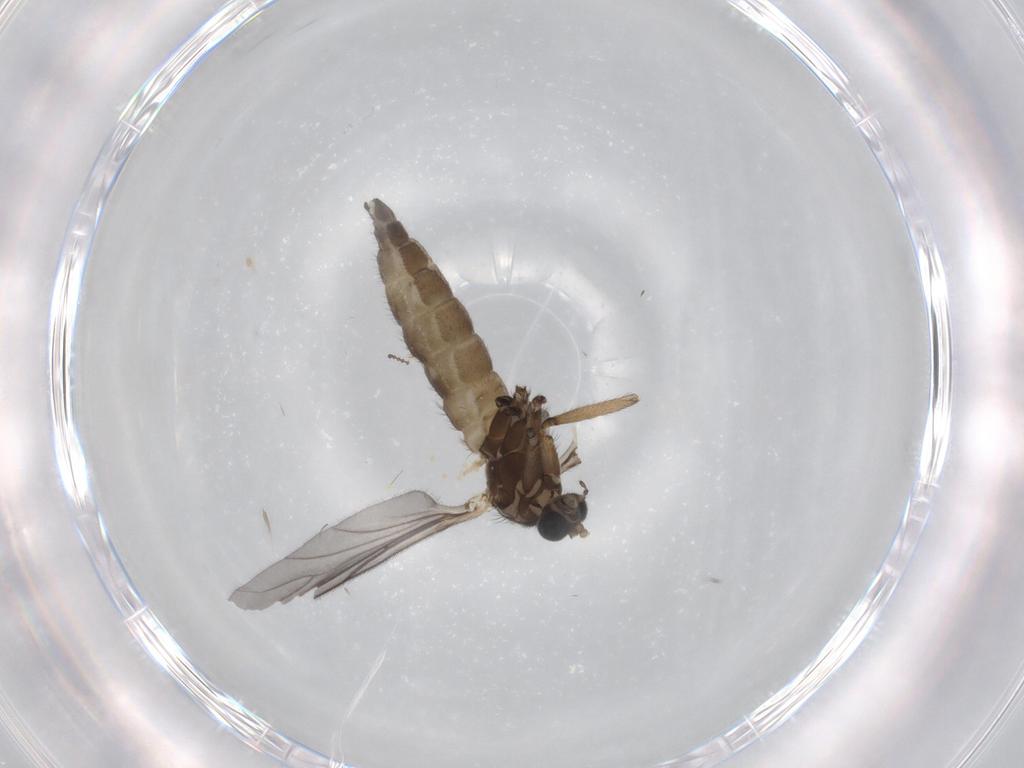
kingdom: Animalia
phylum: Arthropoda
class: Insecta
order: Diptera
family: Sciaridae
